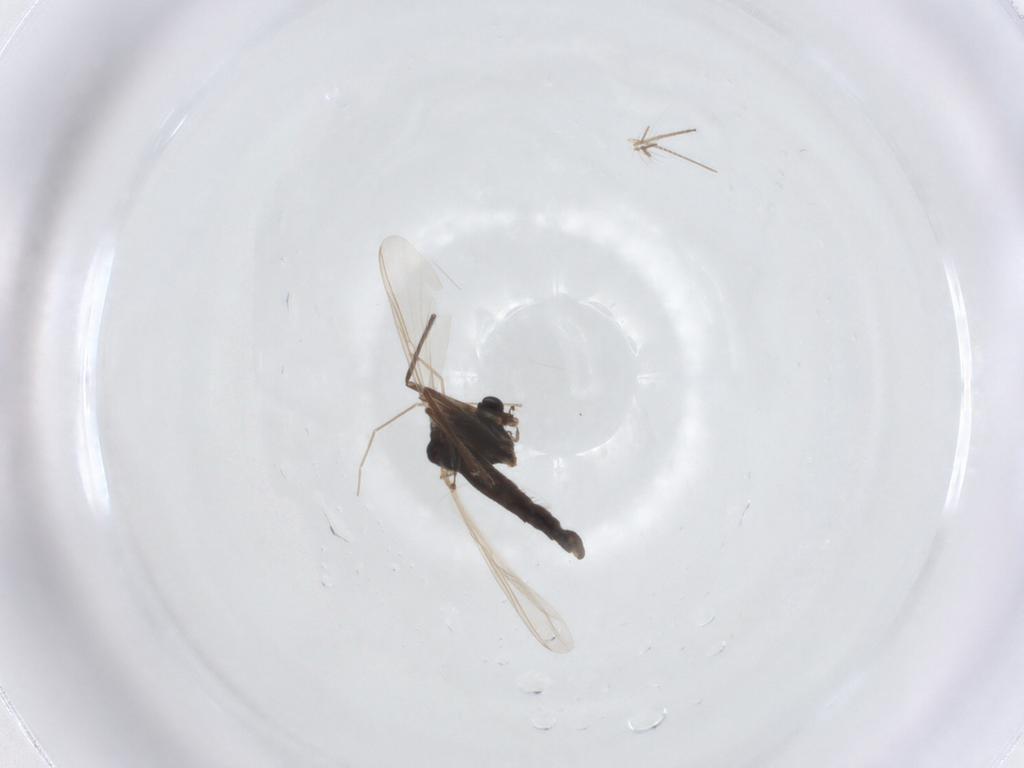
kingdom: Animalia
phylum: Arthropoda
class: Insecta
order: Diptera
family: Chironomidae
